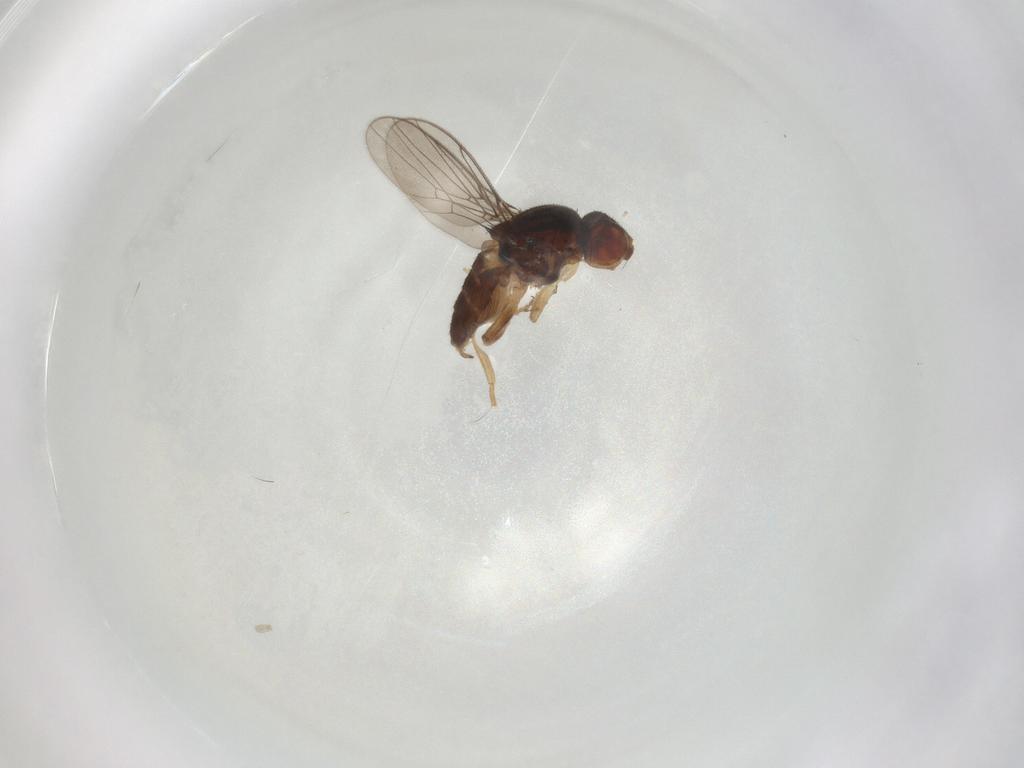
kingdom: Animalia
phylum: Arthropoda
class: Insecta
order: Diptera
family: Chloropidae
